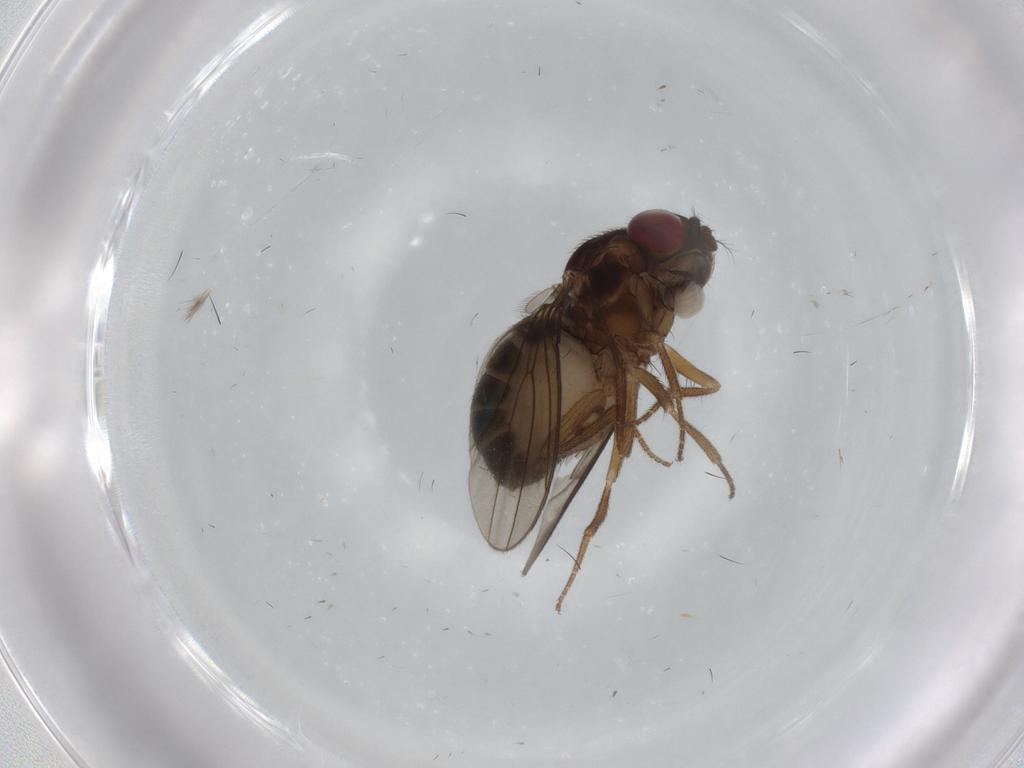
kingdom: Animalia
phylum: Arthropoda
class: Insecta
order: Diptera
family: Drosophilidae
